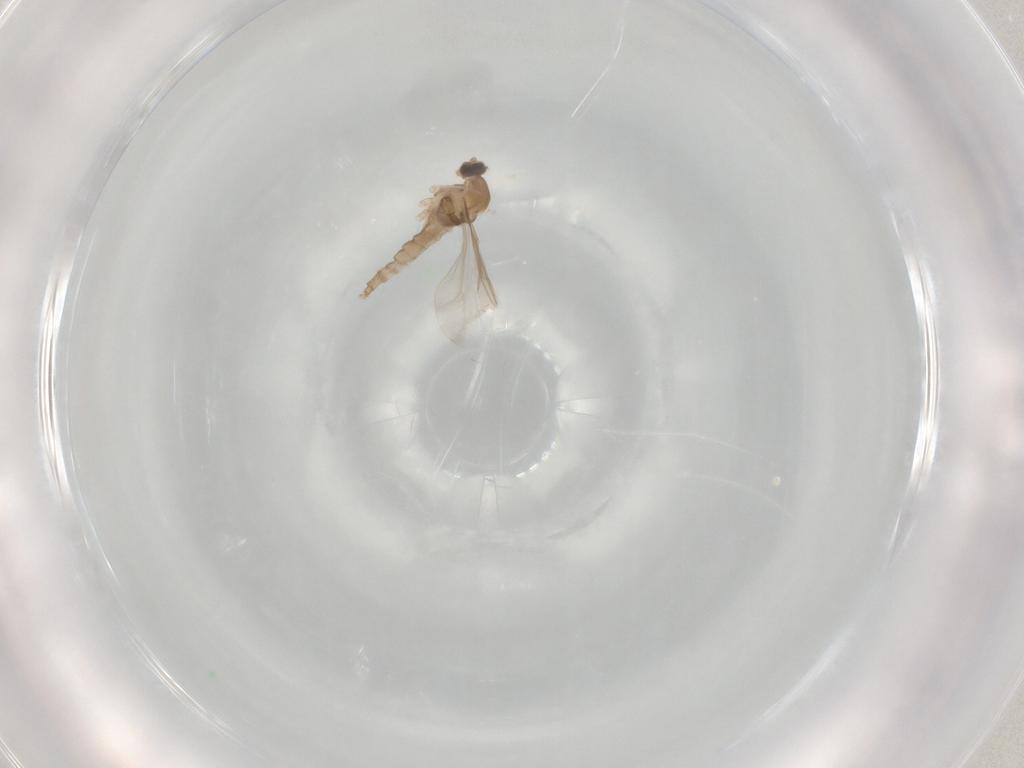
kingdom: Animalia
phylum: Arthropoda
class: Insecta
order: Diptera
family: Cecidomyiidae
